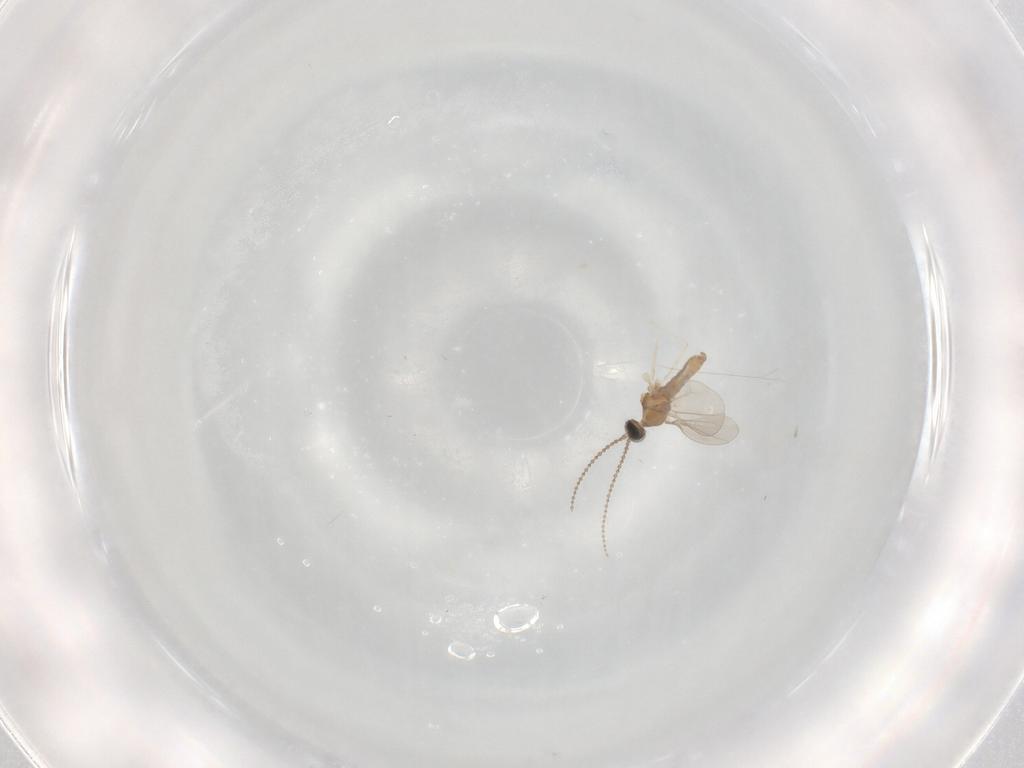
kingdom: Animalia
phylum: Arthropoda
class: Insecta
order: Diptera
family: Cecidomyiidae
